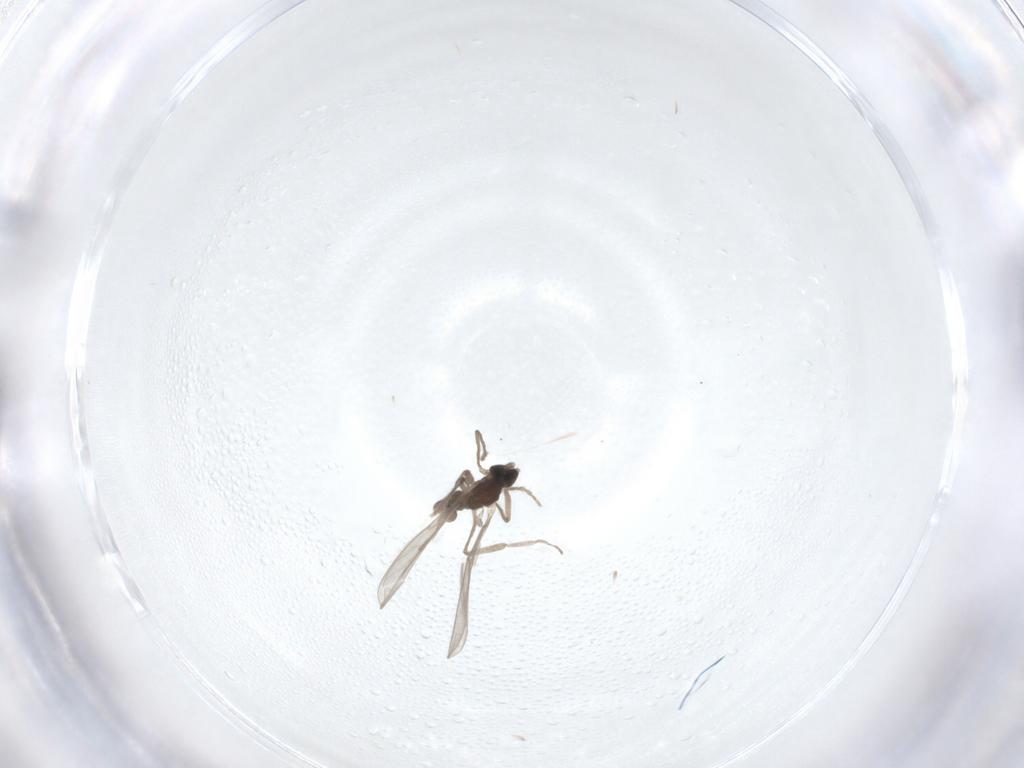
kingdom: Animalia
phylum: Arthropoda
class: Insecta
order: Diptera
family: Cecidomyiidae
